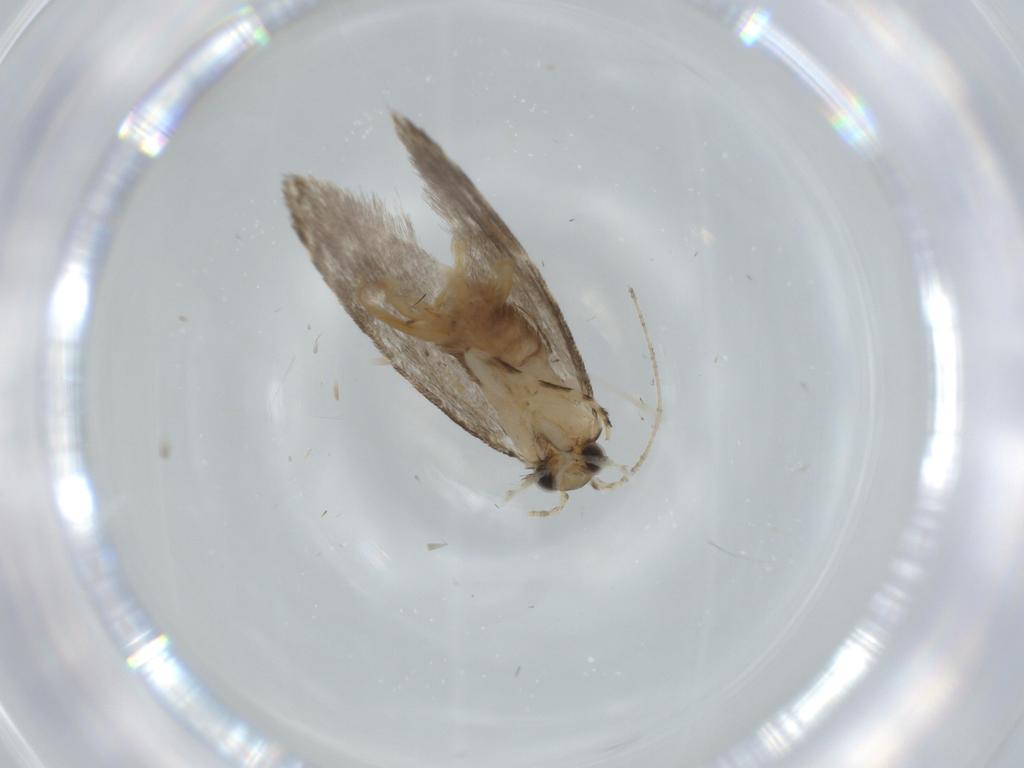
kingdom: Animalia
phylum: Arthropoda
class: Insecta
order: Lepidoptera
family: Tineidae
